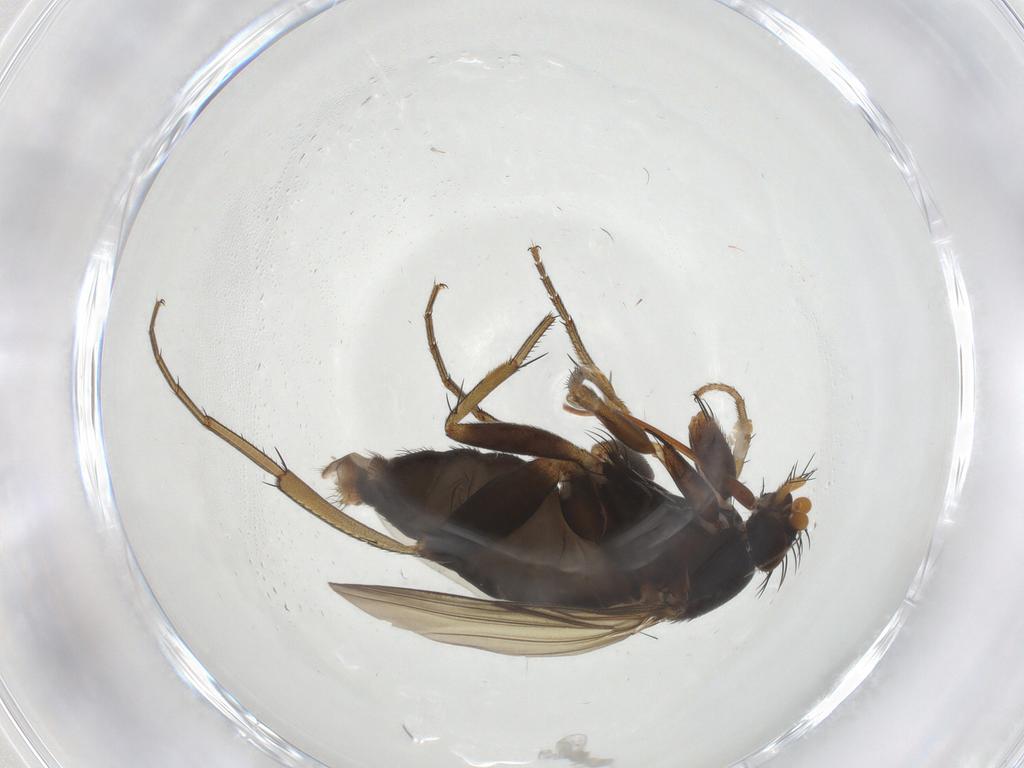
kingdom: Animalia
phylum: Arthropoda
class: Insecta
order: Diptera
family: Phoridae
